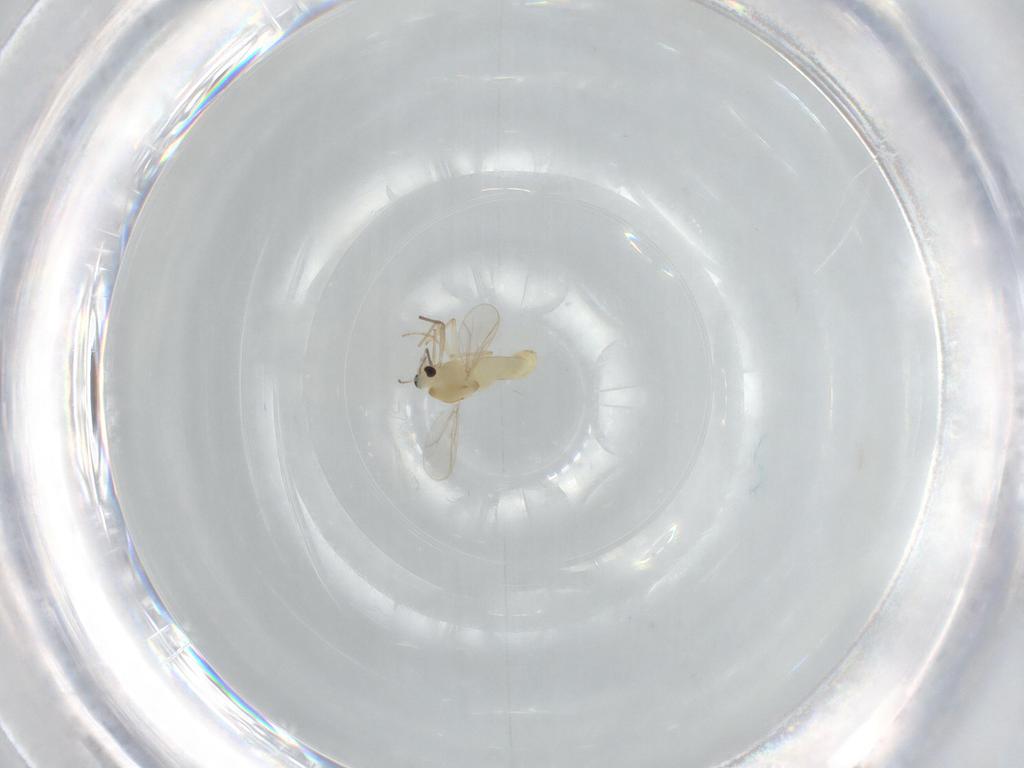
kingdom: Animalia
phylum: Arthropoda
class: Insecta
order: Diptera
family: Chironomidae
